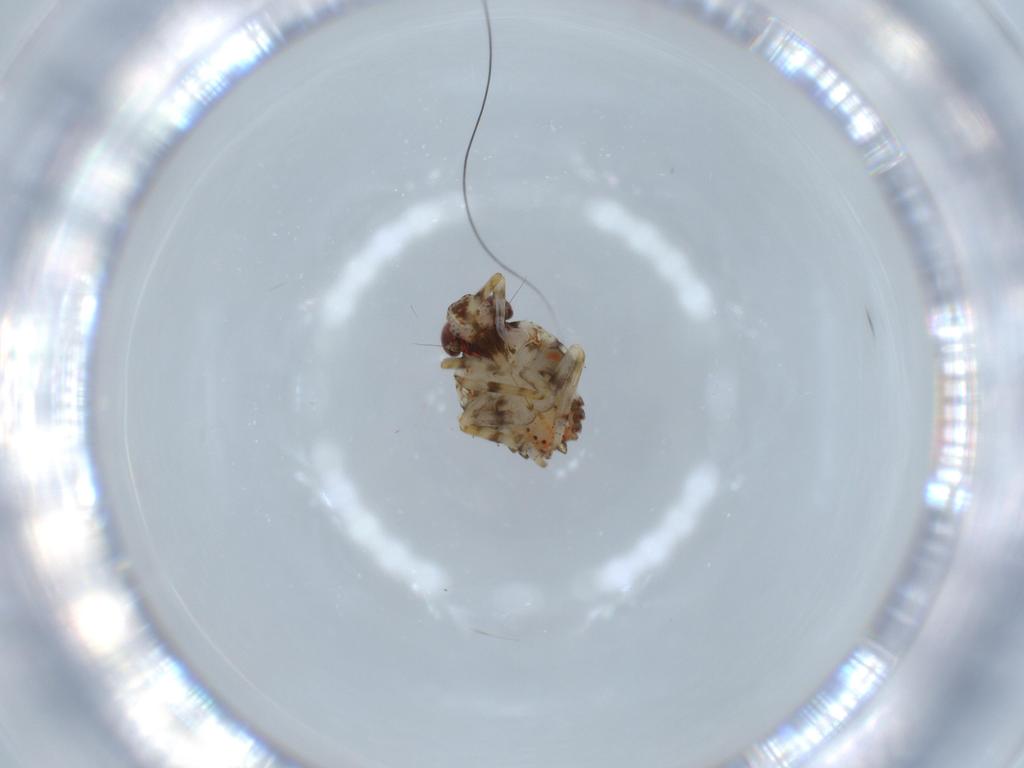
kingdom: Animalia
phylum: Arthropoda
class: Insecta
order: Hemiptera
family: Issidae
